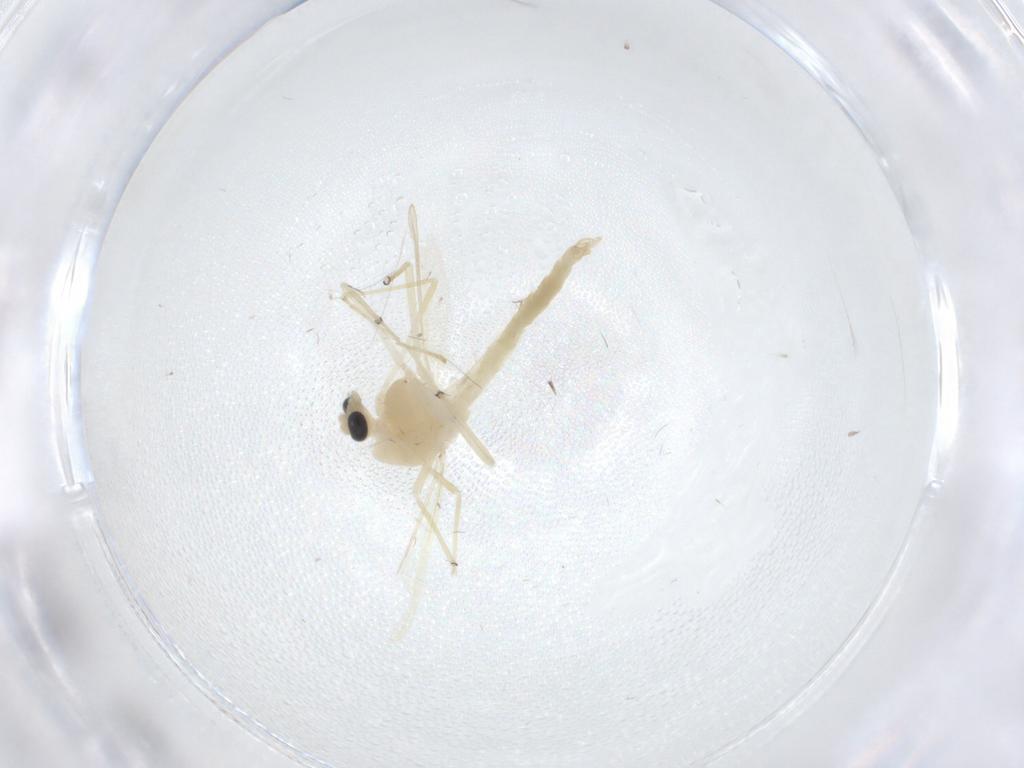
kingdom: Animalia
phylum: Arthropoda
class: Insecta
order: Diptera
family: Chironomidae
